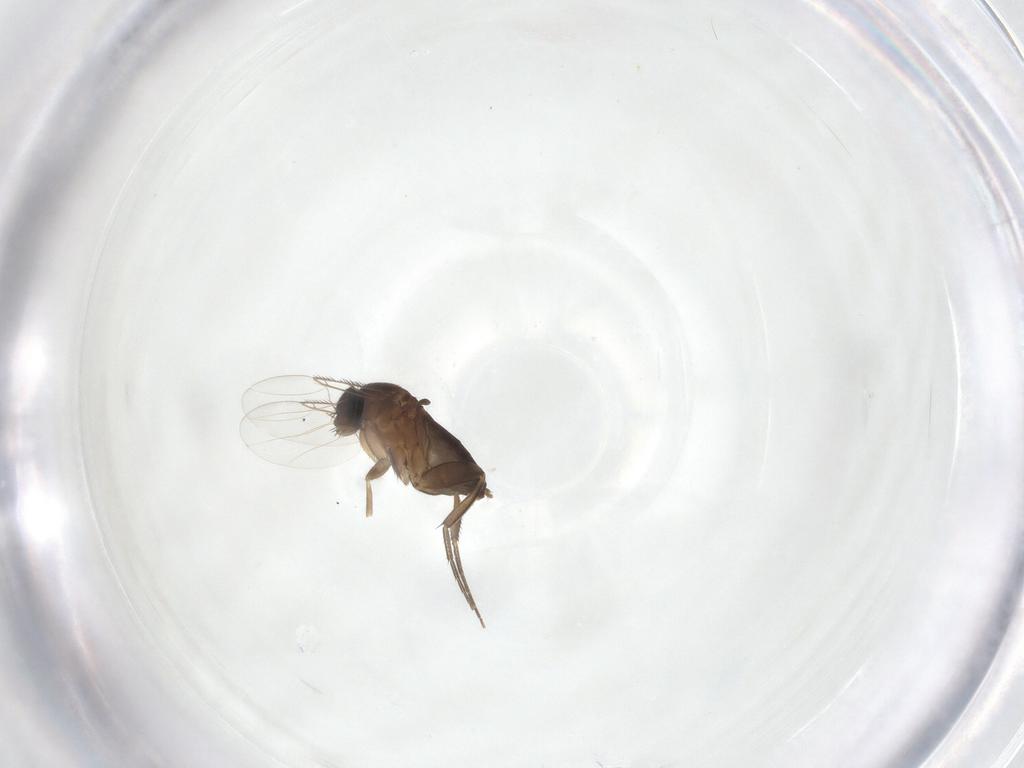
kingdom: Animalia
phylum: Arthropoda
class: Insecta
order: Diptera
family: Phoridae
